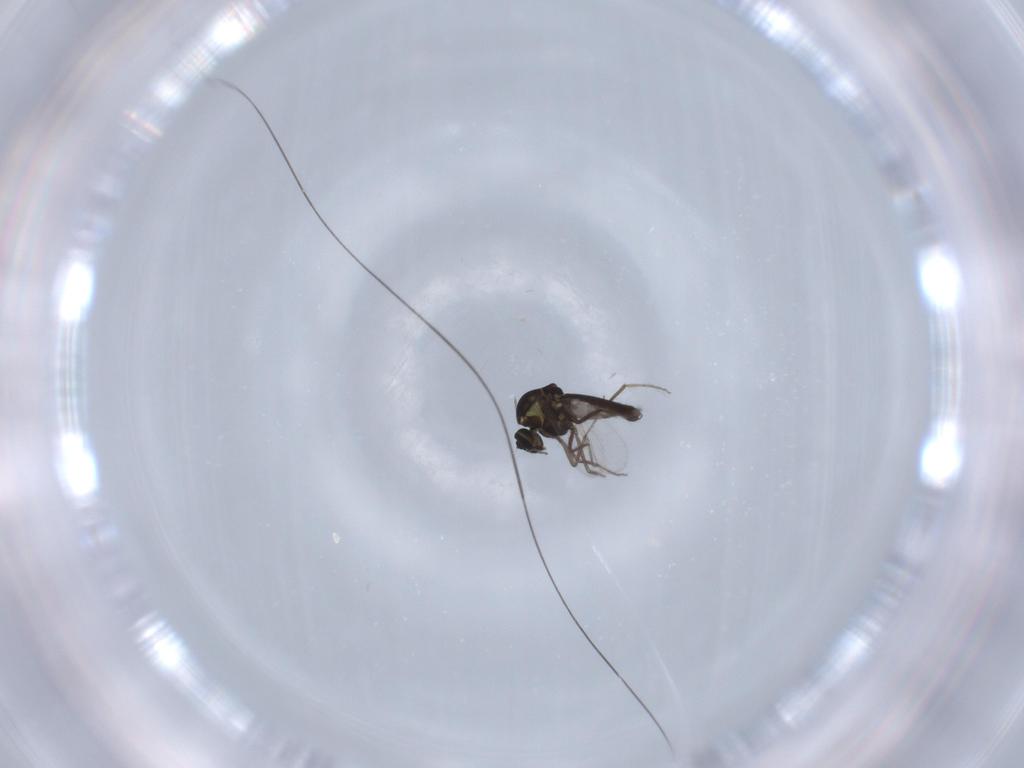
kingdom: Animalia
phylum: Arthropoda
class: Insecta
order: Diptera
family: Ceratopogonidae
